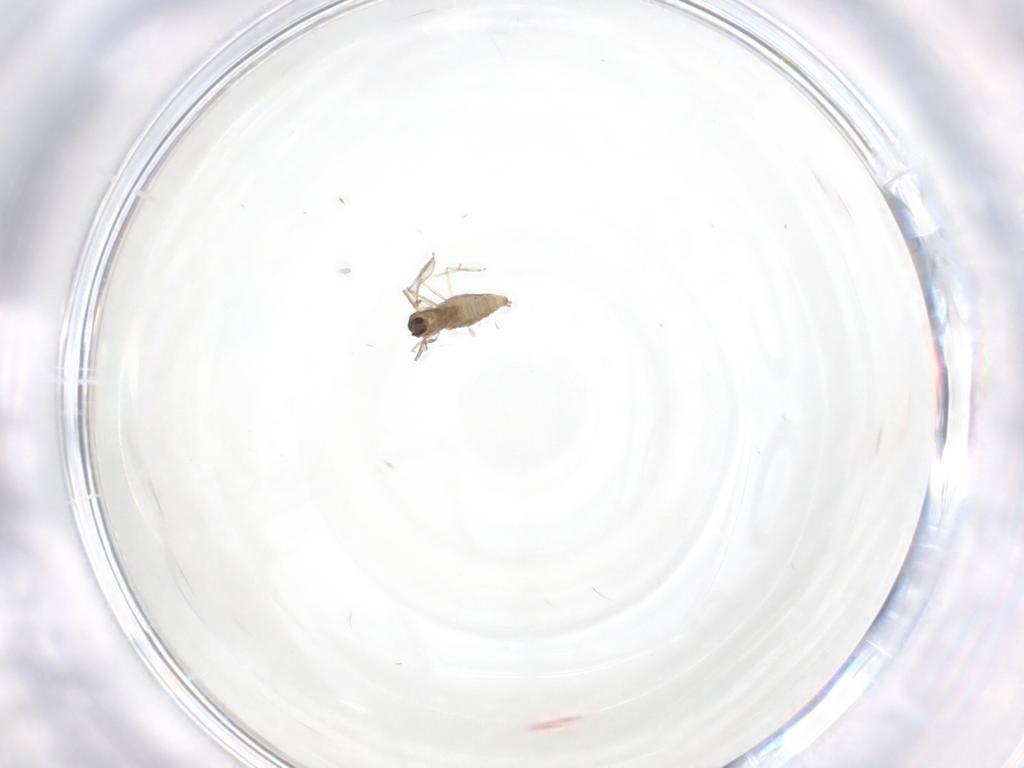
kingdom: Animalia
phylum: Arthropoda
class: Insecta
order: Diptera
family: Cecidomyiidae
